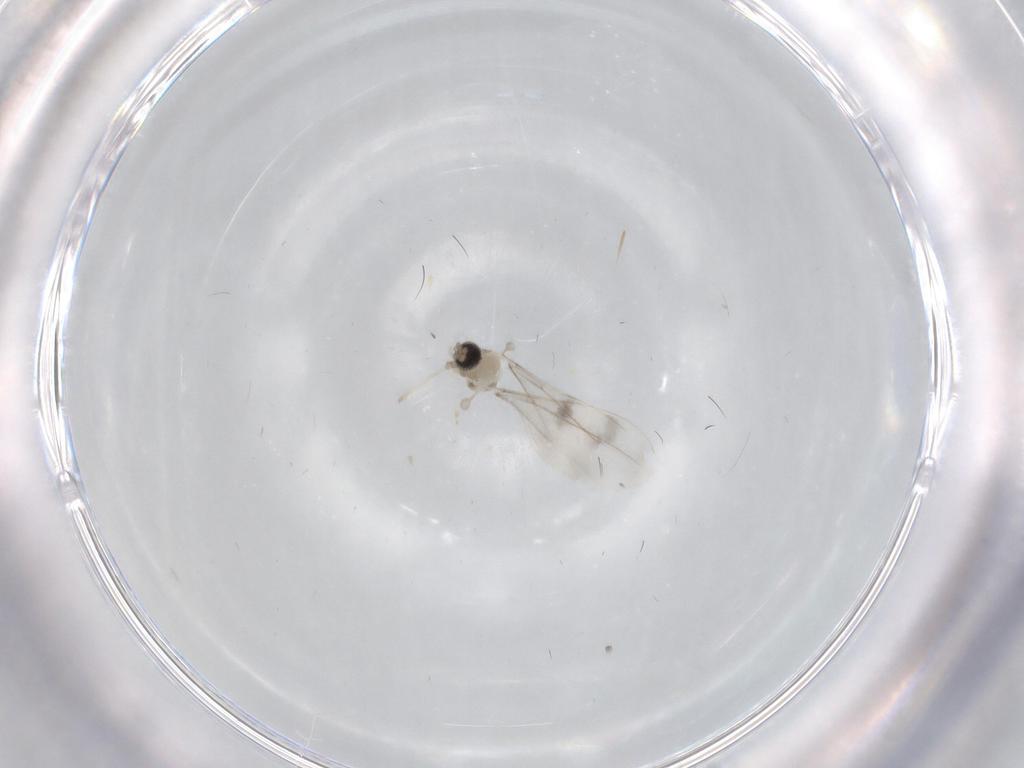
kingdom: Animalia
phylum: Arthropoda
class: Insecta
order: Diptera
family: Cecidomyiidae
